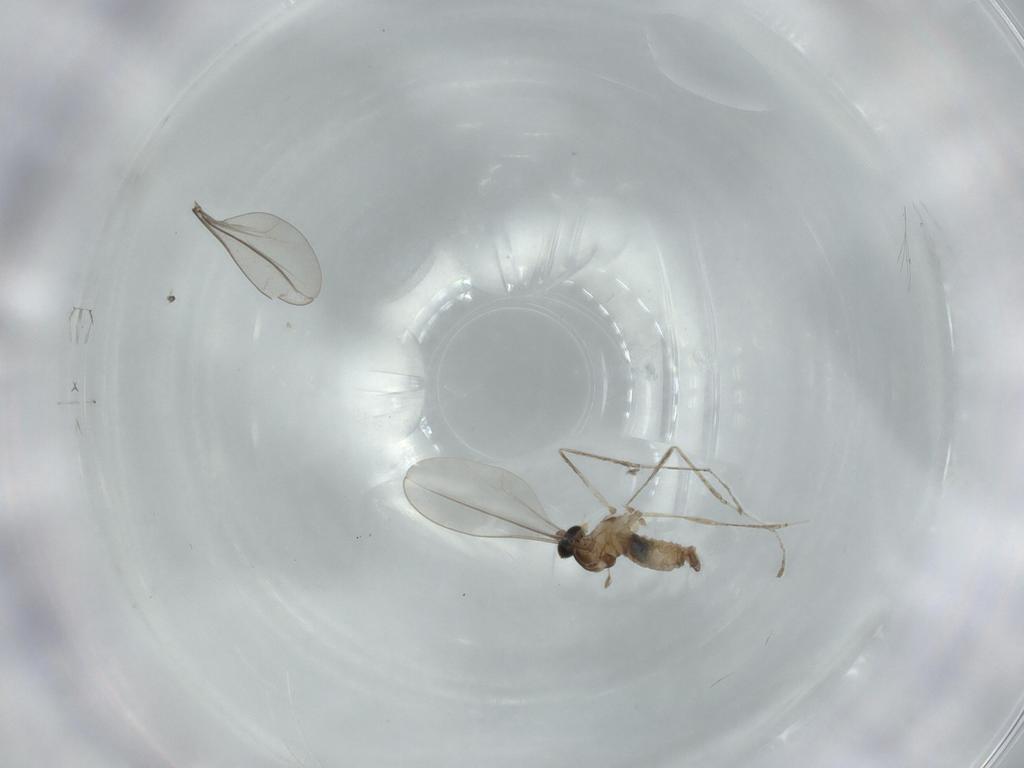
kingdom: Animalia
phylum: Arthropoda
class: Insecta
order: Diptera
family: Cecidomyiidae
